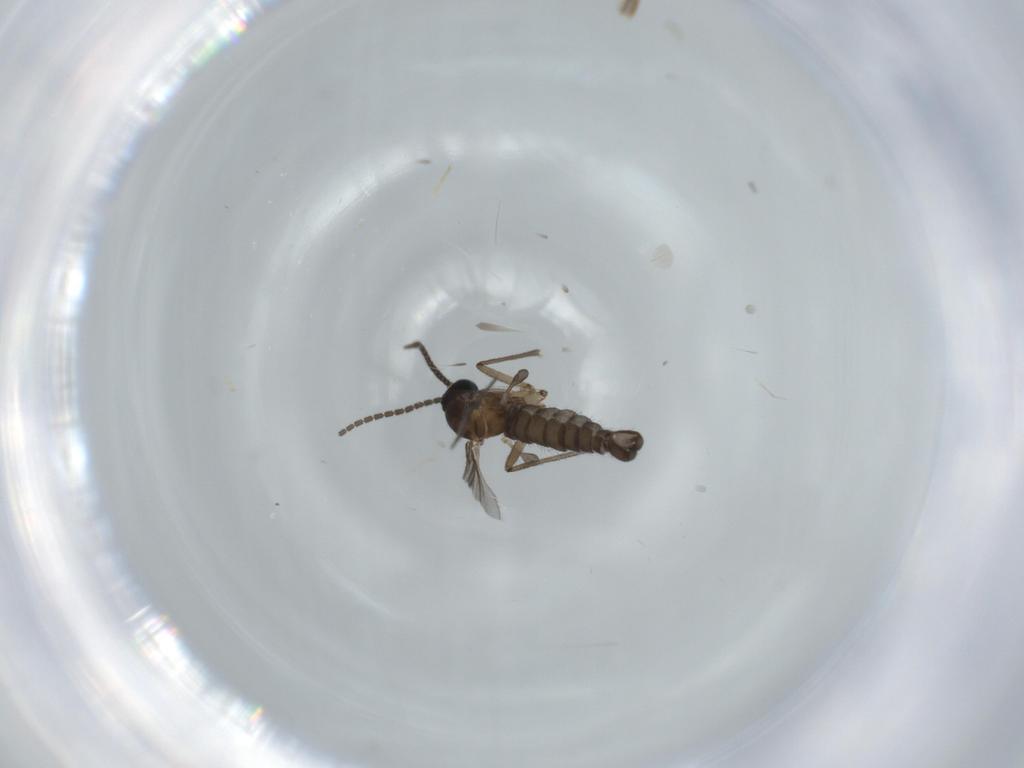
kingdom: Animalia
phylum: Arthropoda
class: Insecta
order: Diptera
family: Sciaridae
